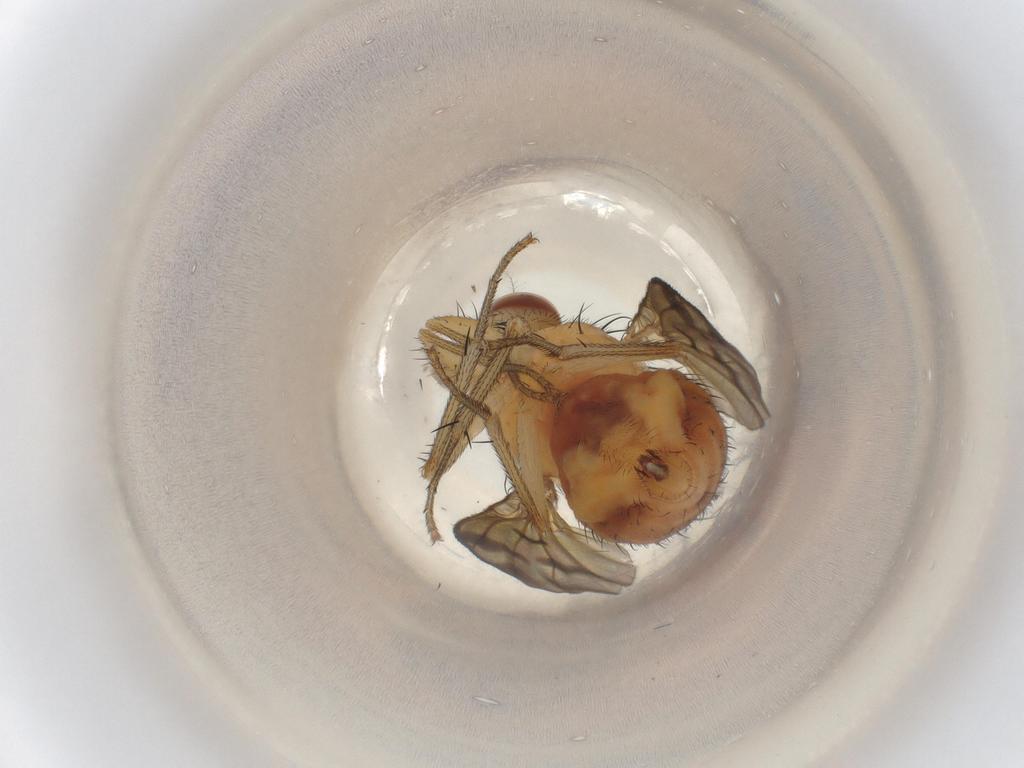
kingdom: Animalia
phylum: Arthropoda
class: Insecta
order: Diptera
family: Lauxaniidae
